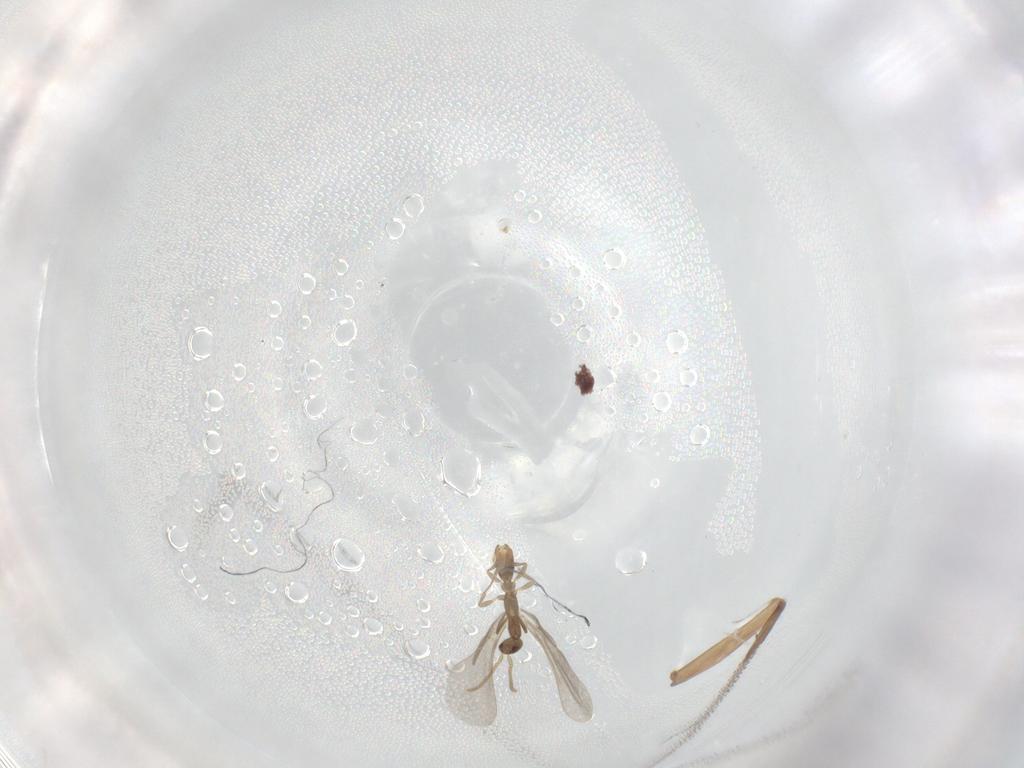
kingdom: Animalia
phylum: Arthropoda
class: Insecta
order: Hymenoptera
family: Formicidae
